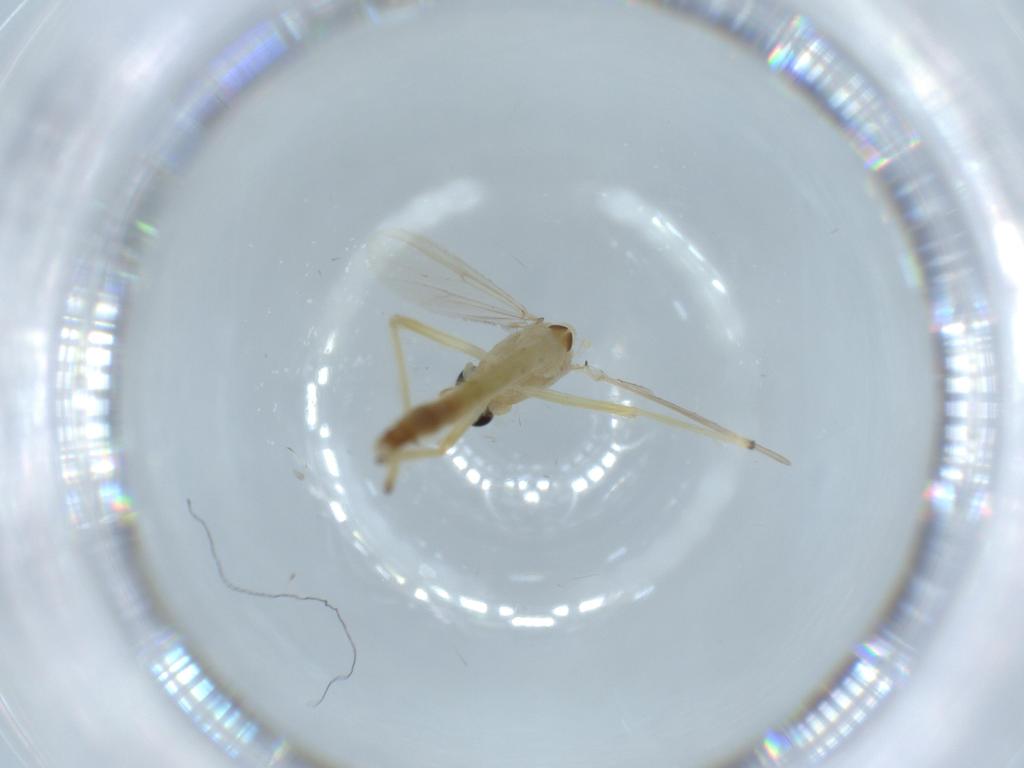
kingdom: Animalia
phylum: Arthropoda
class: Insecta
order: Diptera
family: Chironomidae
